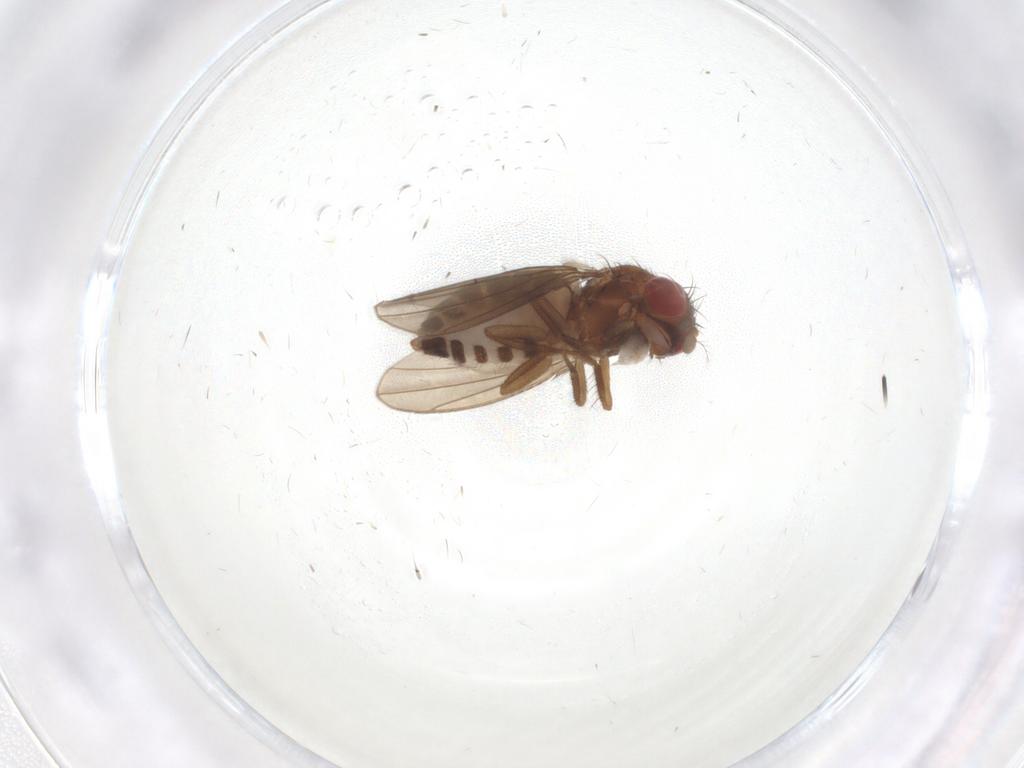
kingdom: Animalia
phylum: Arthropoda
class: Insecta
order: Diptera
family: Drosophilidae
